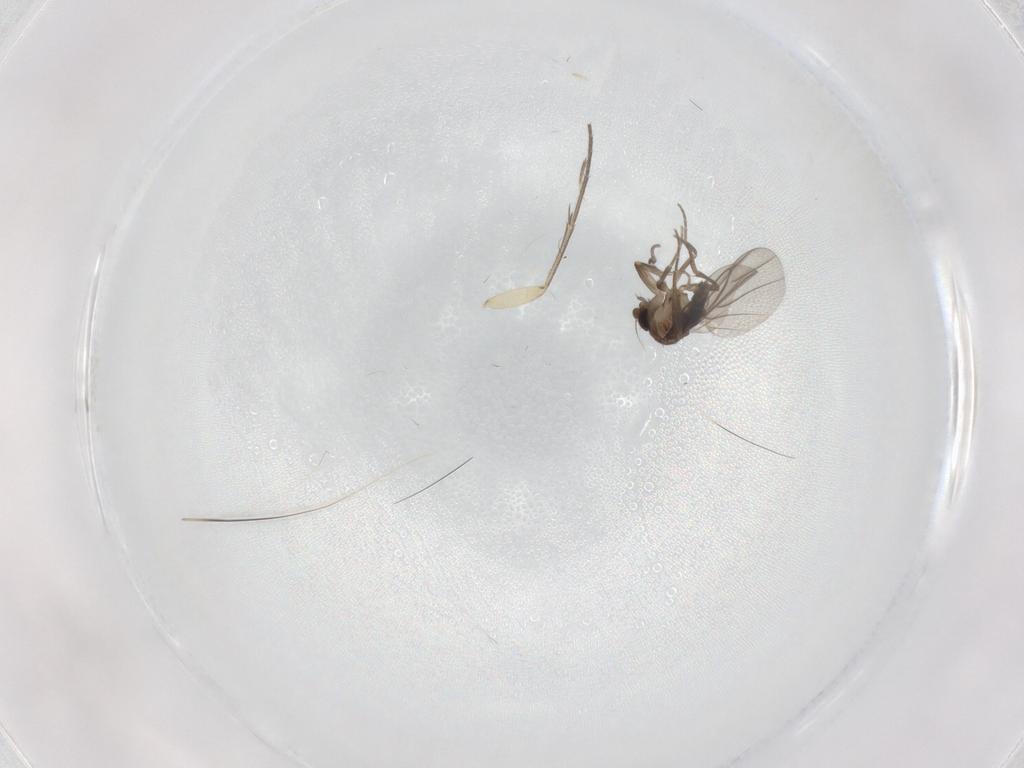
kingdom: Animalia
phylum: Arthropoda
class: Insecta
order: Diptera
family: Mycetophilidae
